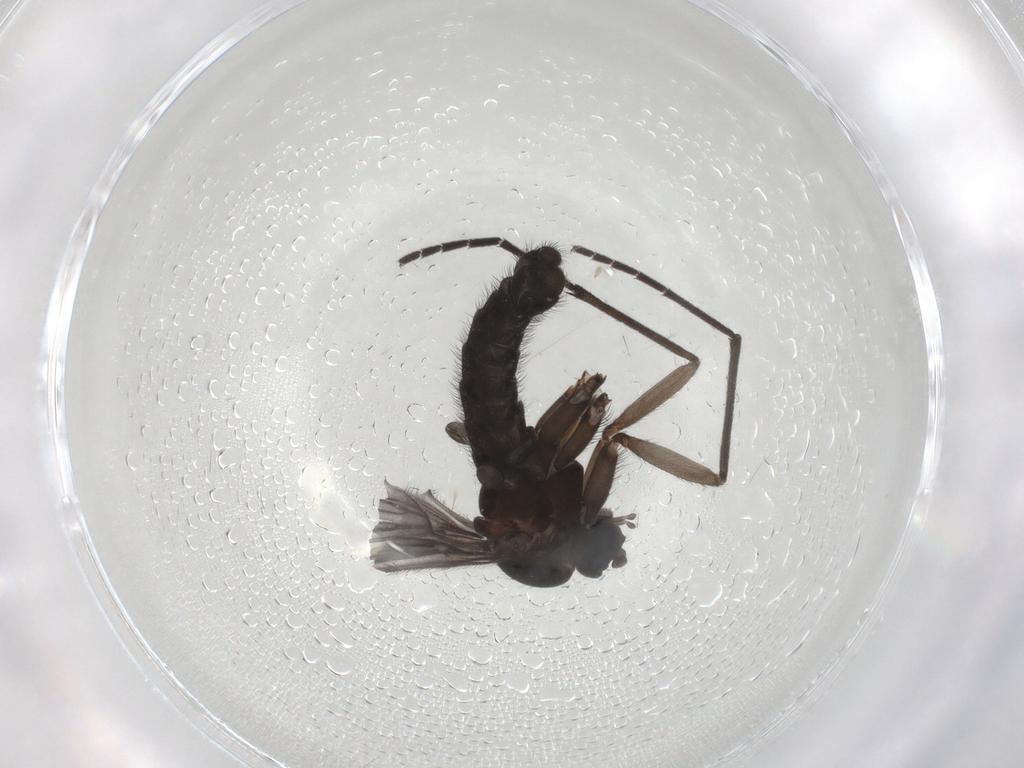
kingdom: Animalia
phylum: Arthropoda
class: Insecta
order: Diptera
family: Sciaridae
